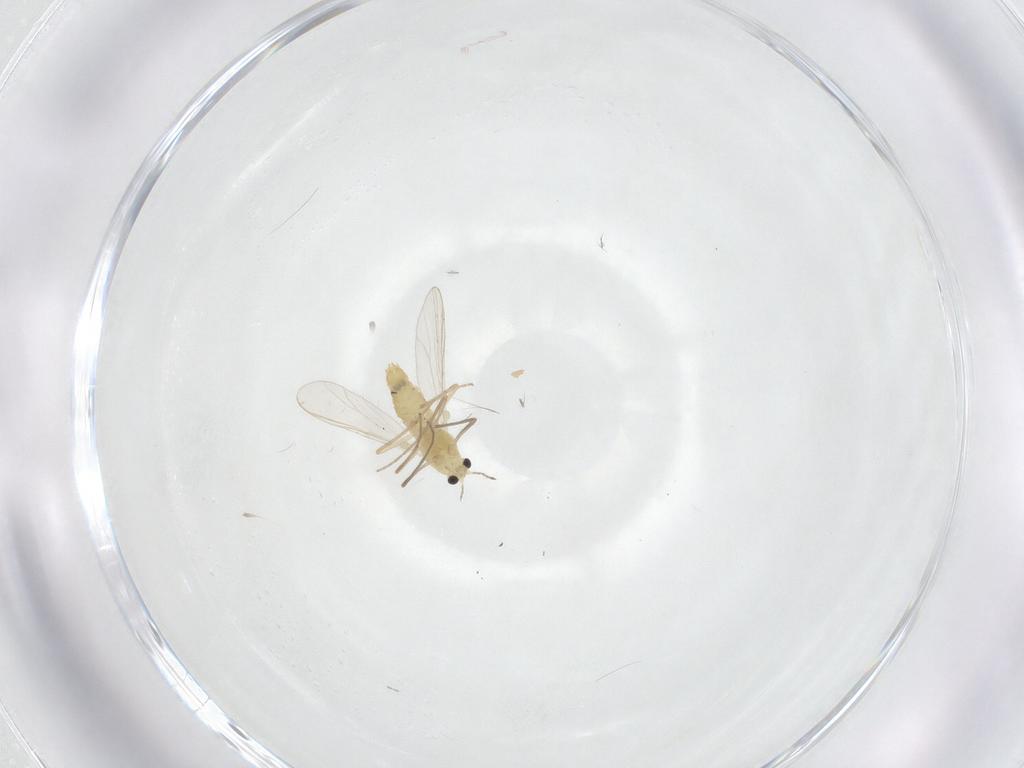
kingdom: Animalia
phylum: Arthropoda
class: Insecta
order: Diptera
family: Chironomidae
